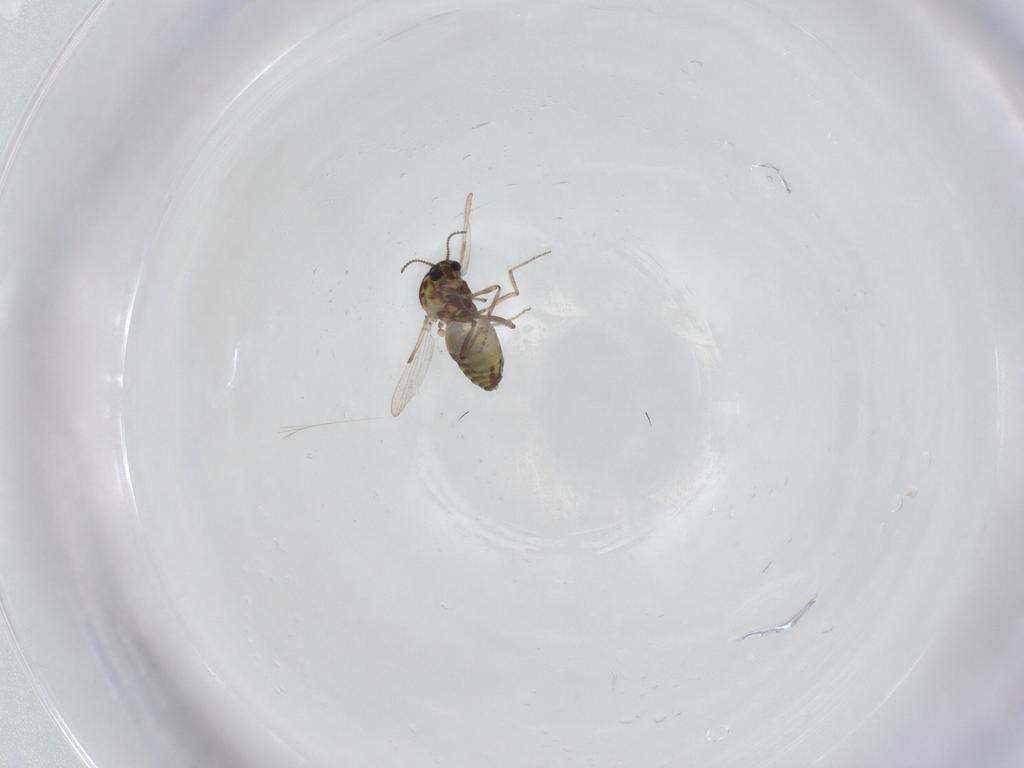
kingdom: Animalia
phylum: Arthropoda
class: Insecta
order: Diptera
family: Ceratopogonidae
